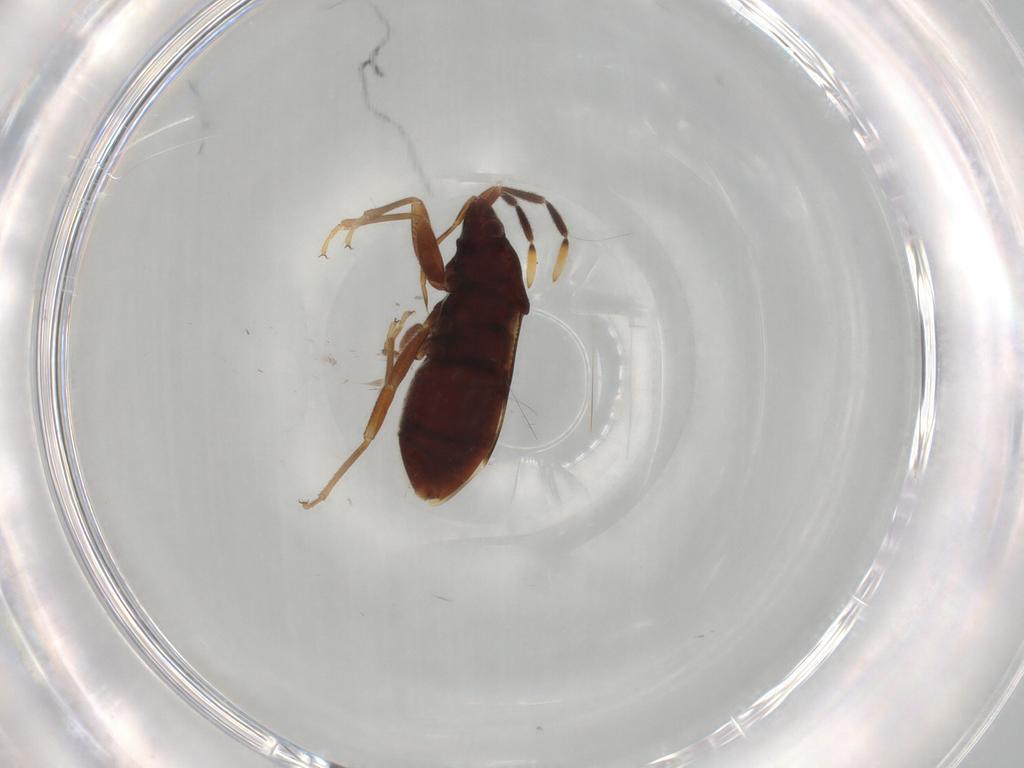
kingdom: Animalia
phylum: Arthropoda
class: Insecta
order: Hemiptera
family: Rhyparochromidae
